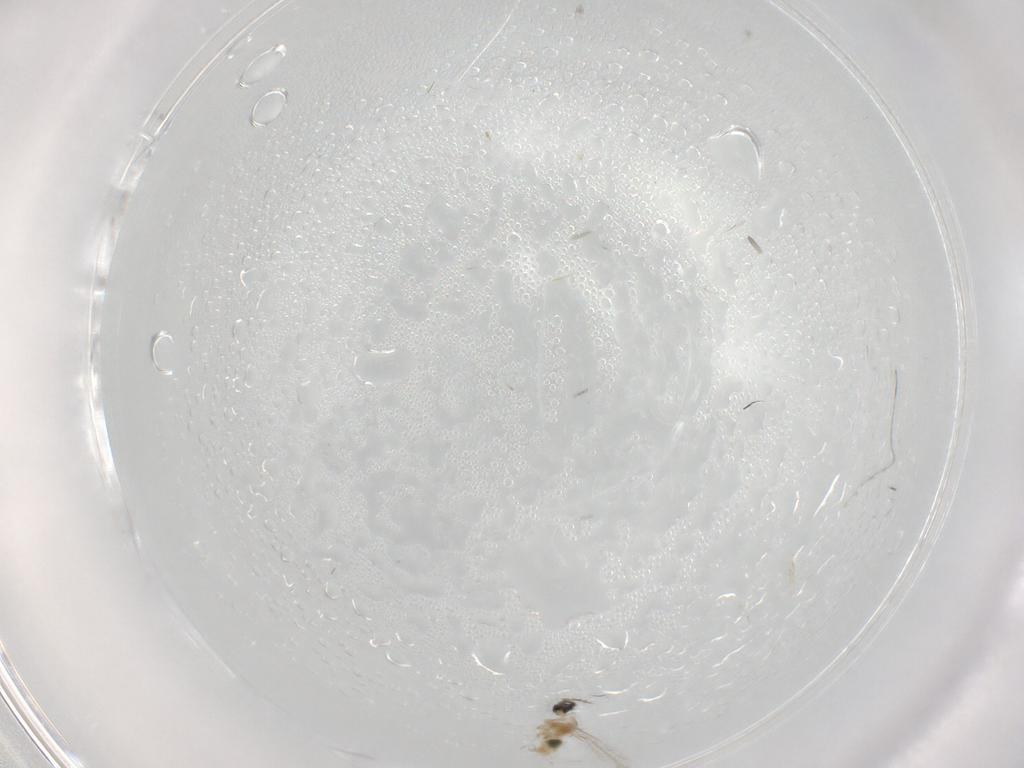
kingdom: Animalia
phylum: Arthropoda
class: Insecta
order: Diptera
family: Cecidomyiidae
